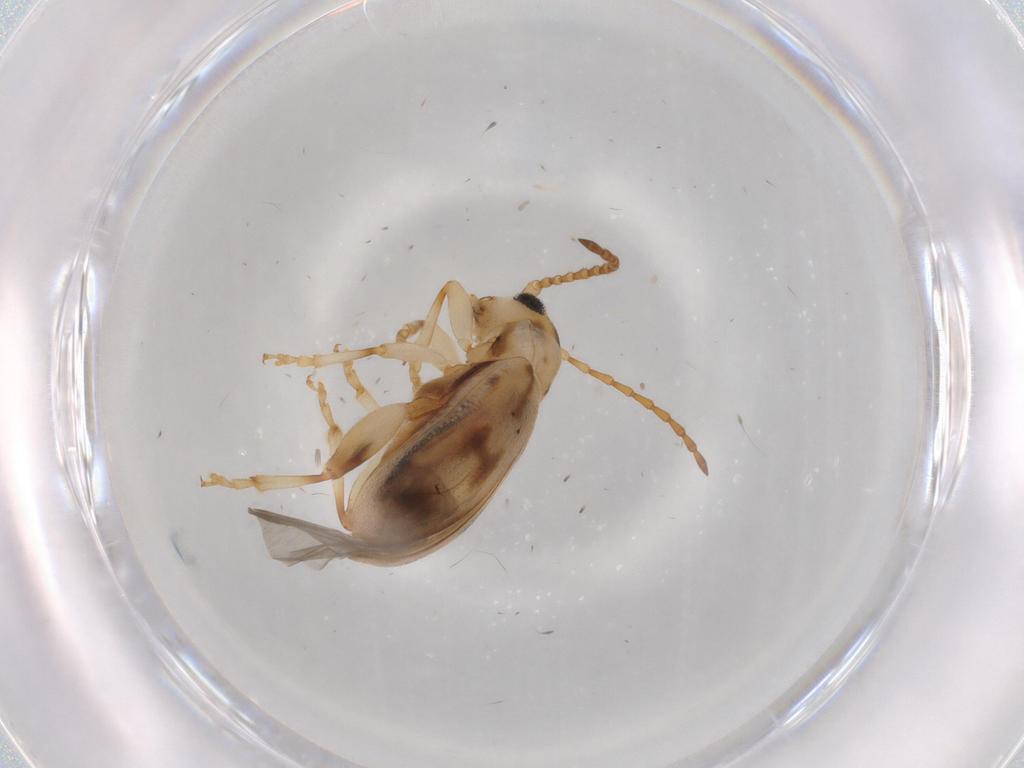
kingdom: Animalia
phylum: Arthropoda
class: Insecta
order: Coleoptera
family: Chrysomelidae
